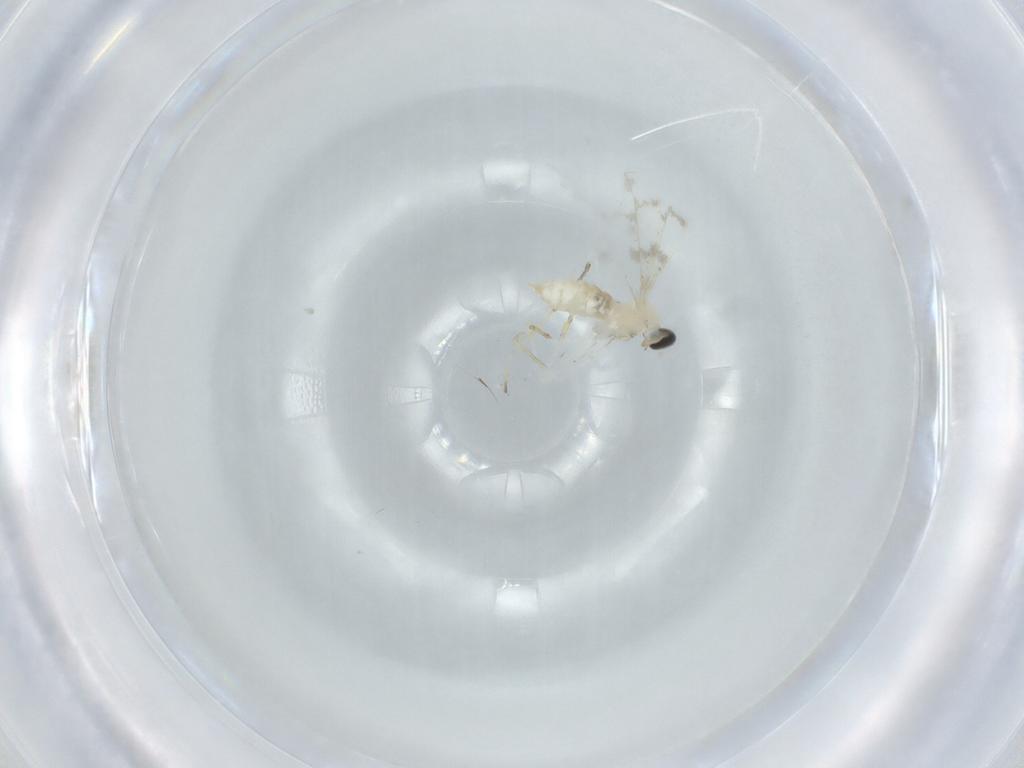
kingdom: Animalia
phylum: Arthropoda
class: Insecta
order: Diptera
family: Cecidomyiidae
